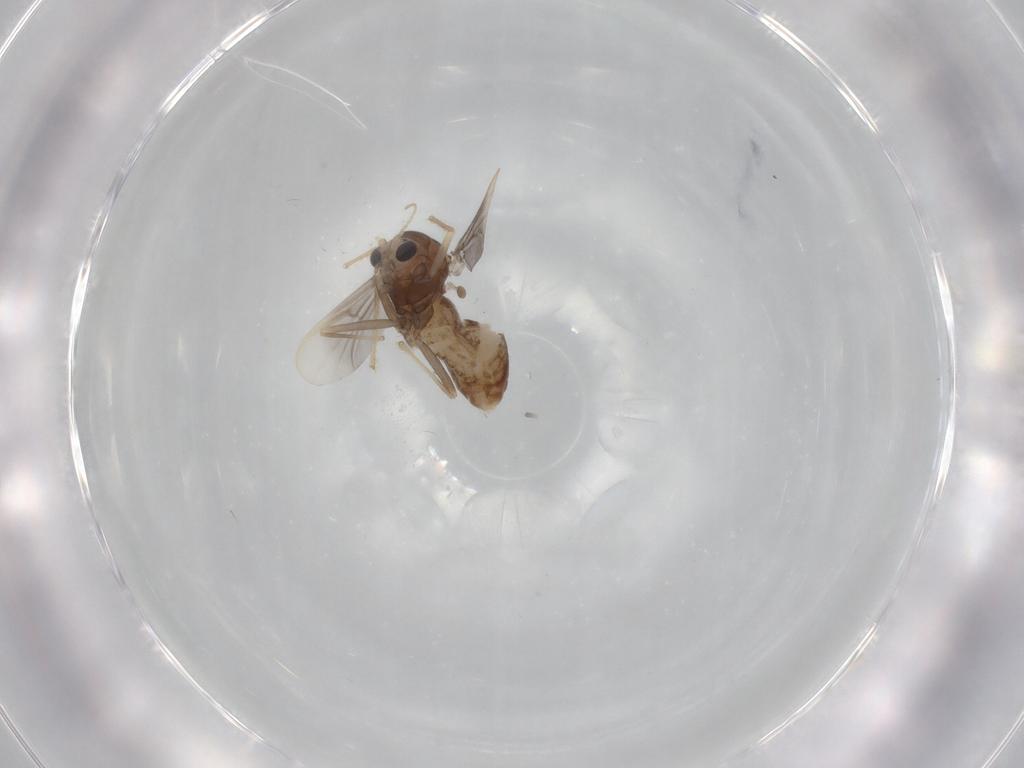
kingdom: Animalia
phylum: Arthropoda
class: Insecta
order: Diptera
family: Chironomidae
